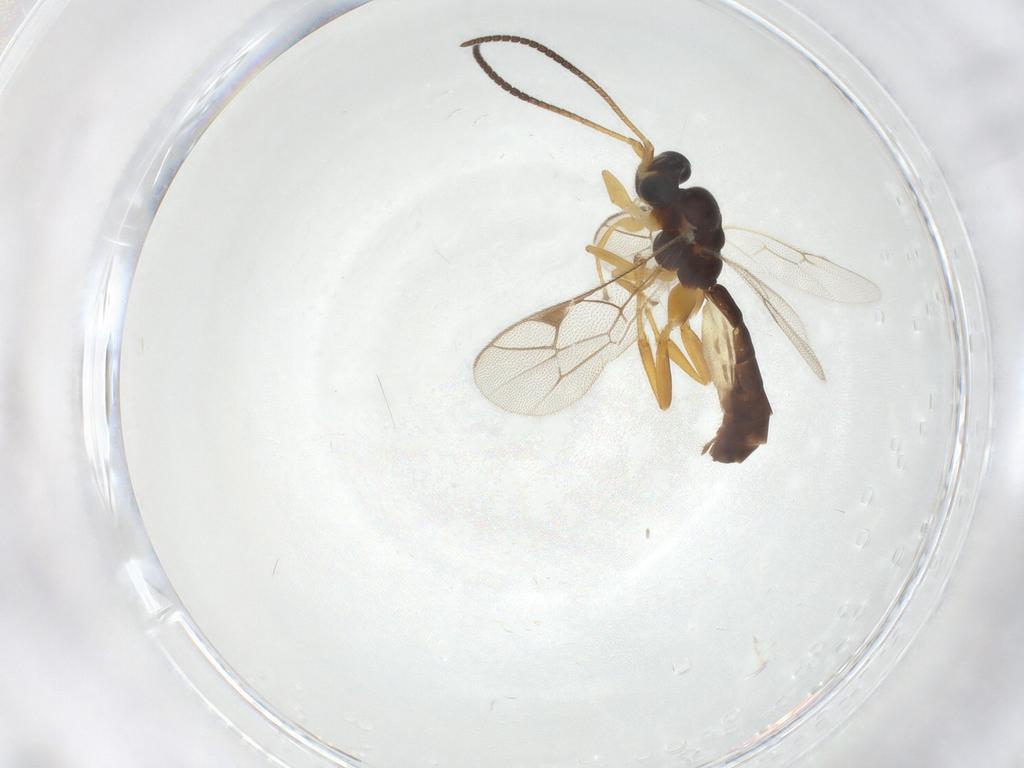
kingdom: Animalia
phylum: Arthropoda
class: Insecta
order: Hymenoptera
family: Ichneumonidae
